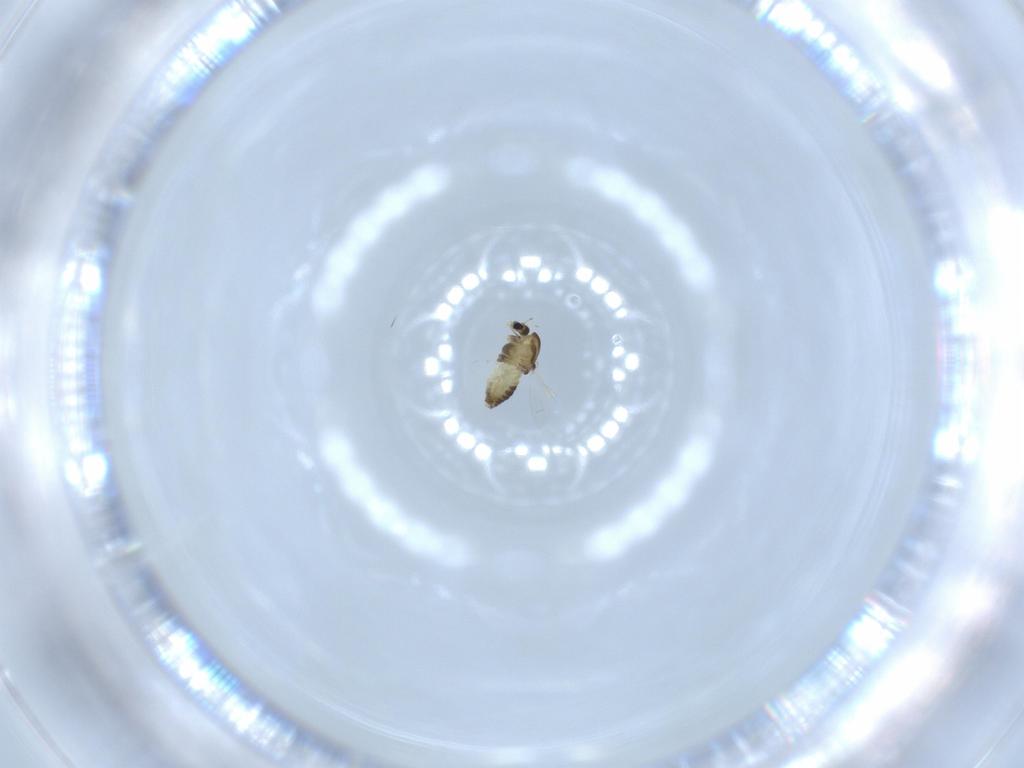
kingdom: Animalia
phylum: Arthropoda
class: Insecta
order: Diptera
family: Chironomidae
